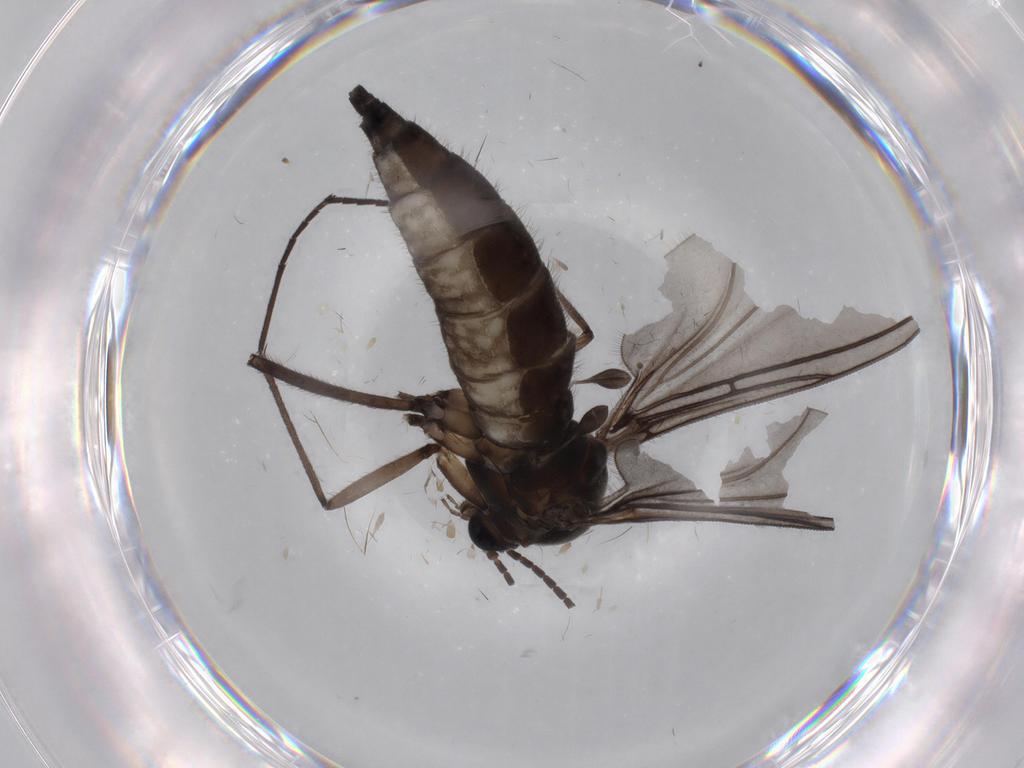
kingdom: Animalia
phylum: Arthropoda
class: Insecta
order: Diptera
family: Sciaridae
